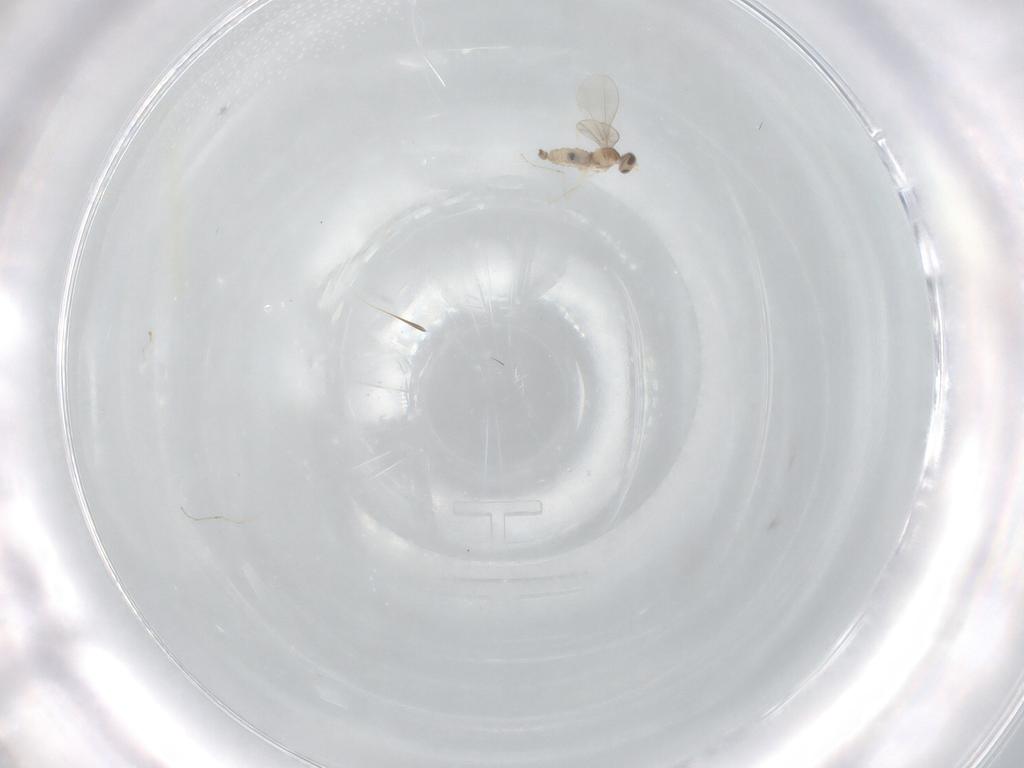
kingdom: Animalia
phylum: Arthropoda
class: Insecta
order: Diptera
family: Cecidomyiidae
